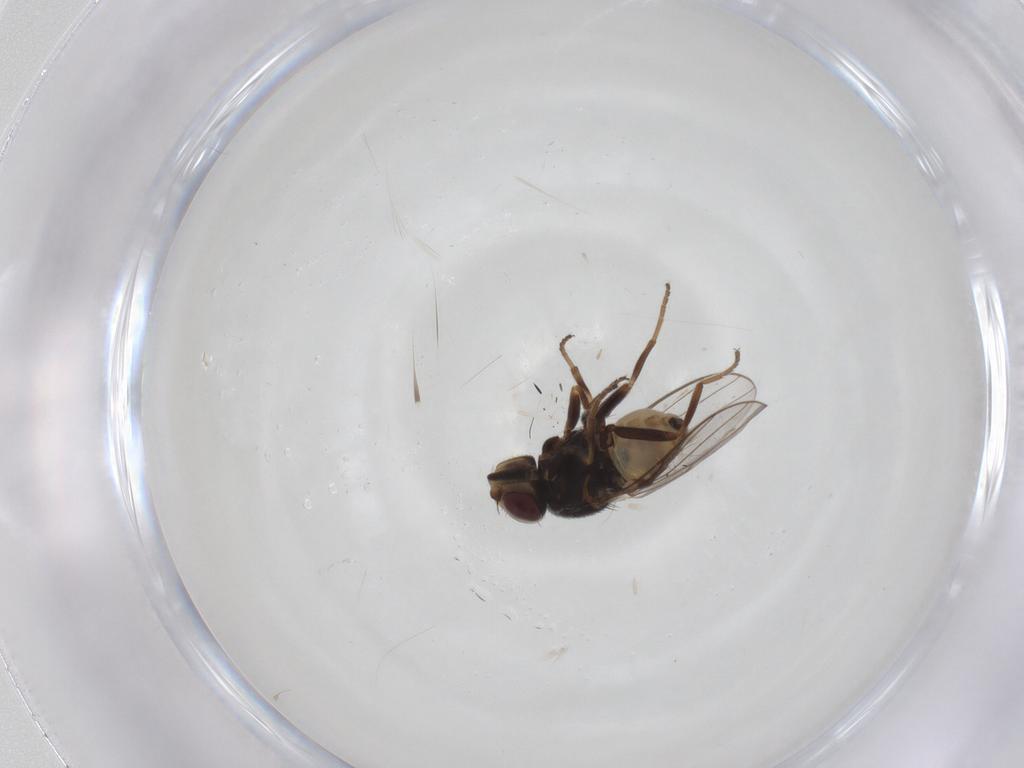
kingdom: Animalia
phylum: Arthropoda
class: Insecta
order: Diptera
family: Chloropidae
